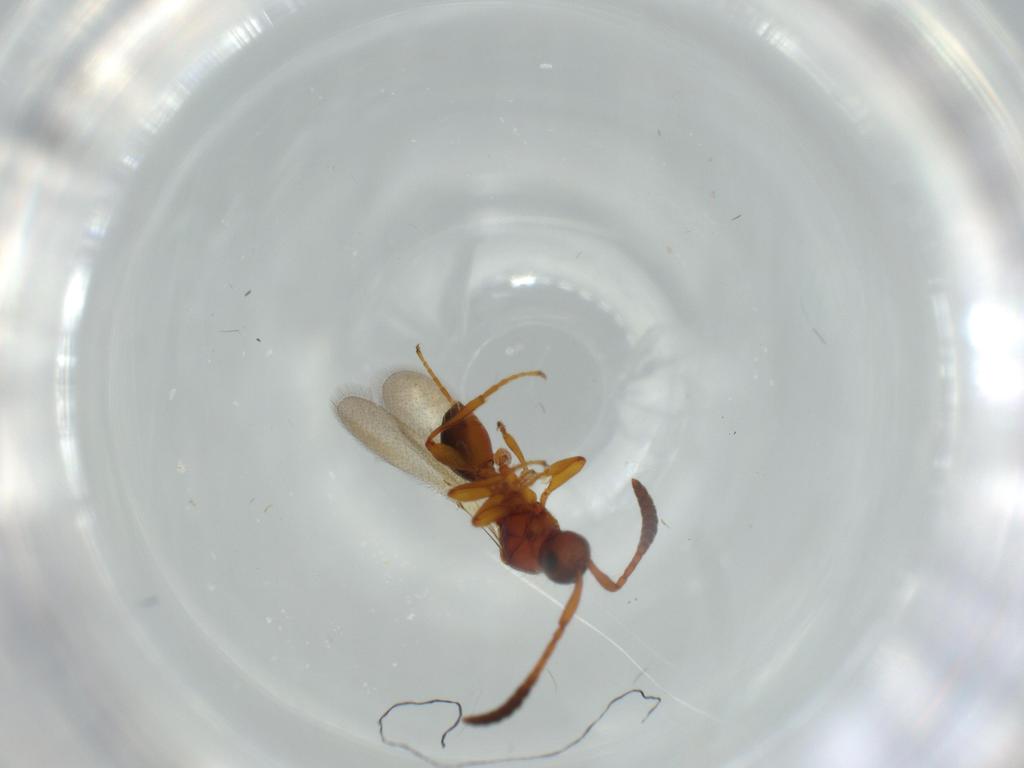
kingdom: Animalia
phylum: Arthropoda
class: Insecta
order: Hymenoptera
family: Diapriidae
